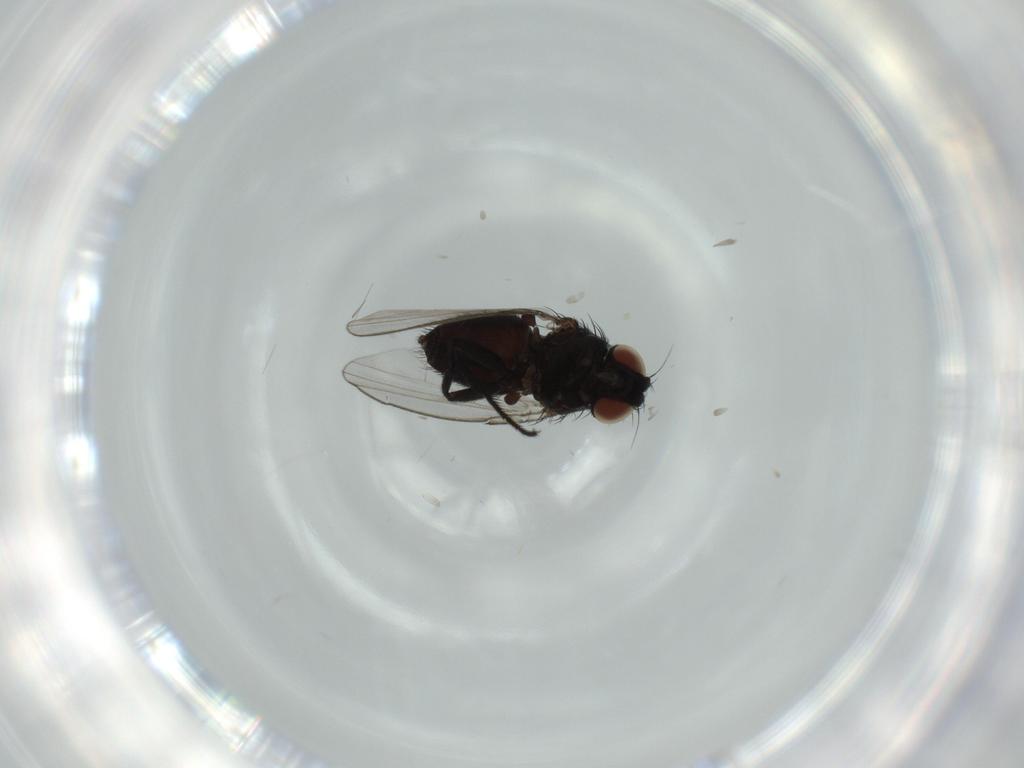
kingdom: Animalia
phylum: Arthropoda
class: Insecta
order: Diptera
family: Milichiidae
